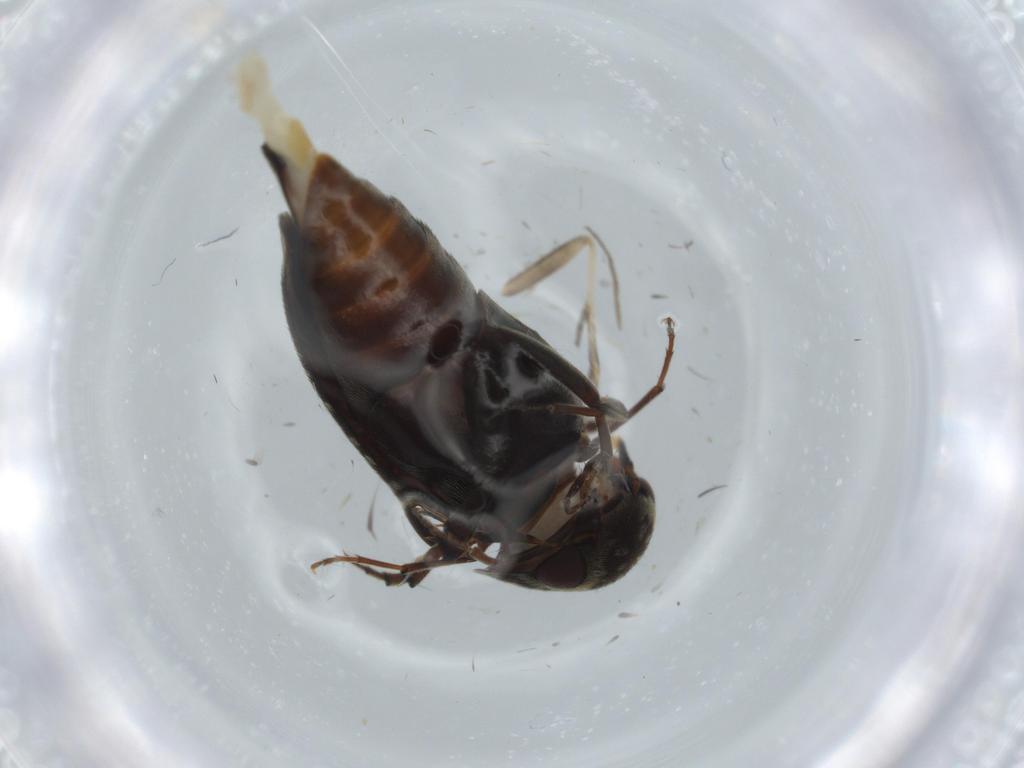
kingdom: Animalia
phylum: Arthropoda
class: Insecta
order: Coleoptera
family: Mordellidae
